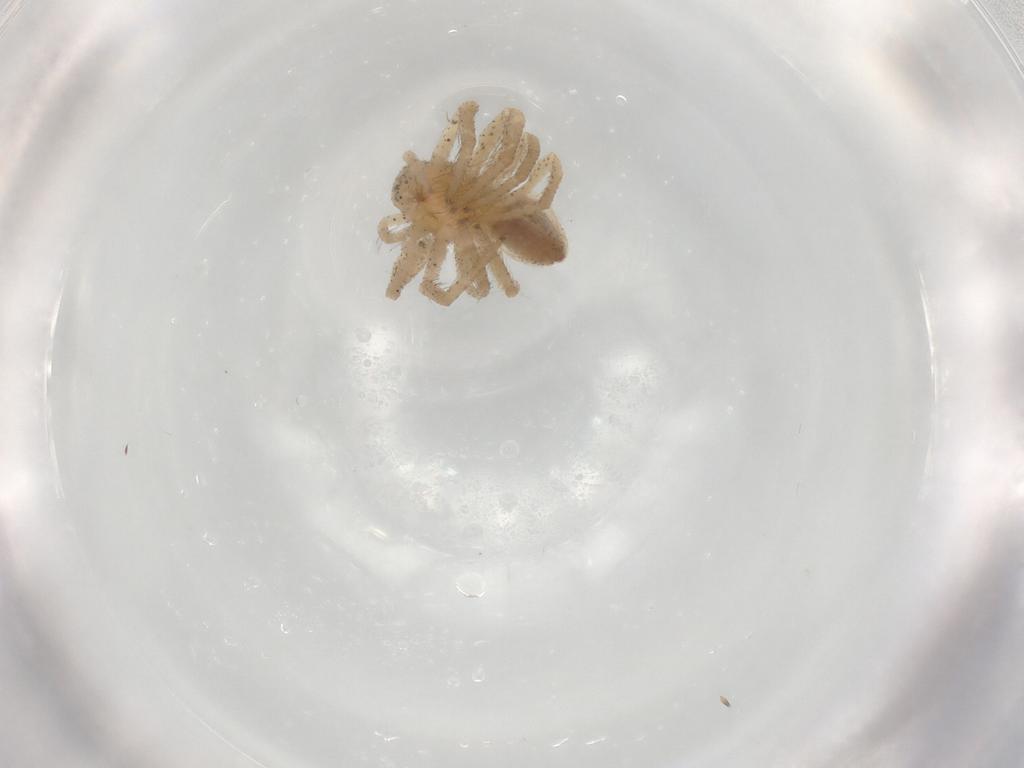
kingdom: Animalia
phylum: Arthropoda
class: Arachnida
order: Araneae
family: Philodromidae
